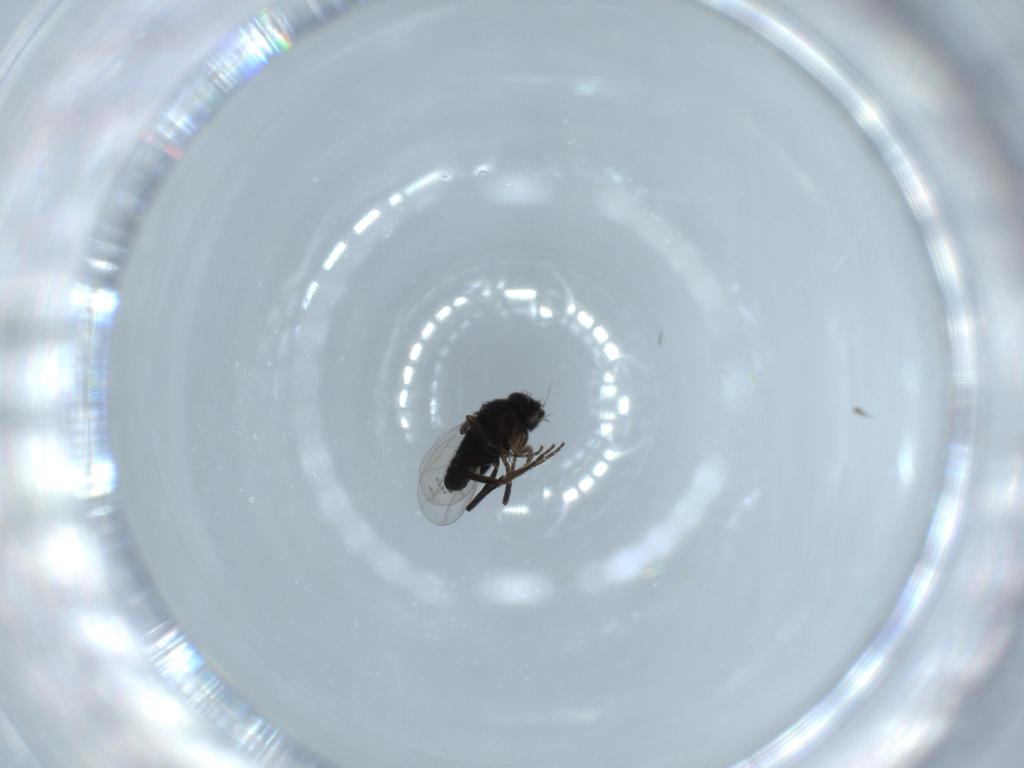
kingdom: Animalia
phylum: Arthropoda
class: Insecta
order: Diptera
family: Phoridae
